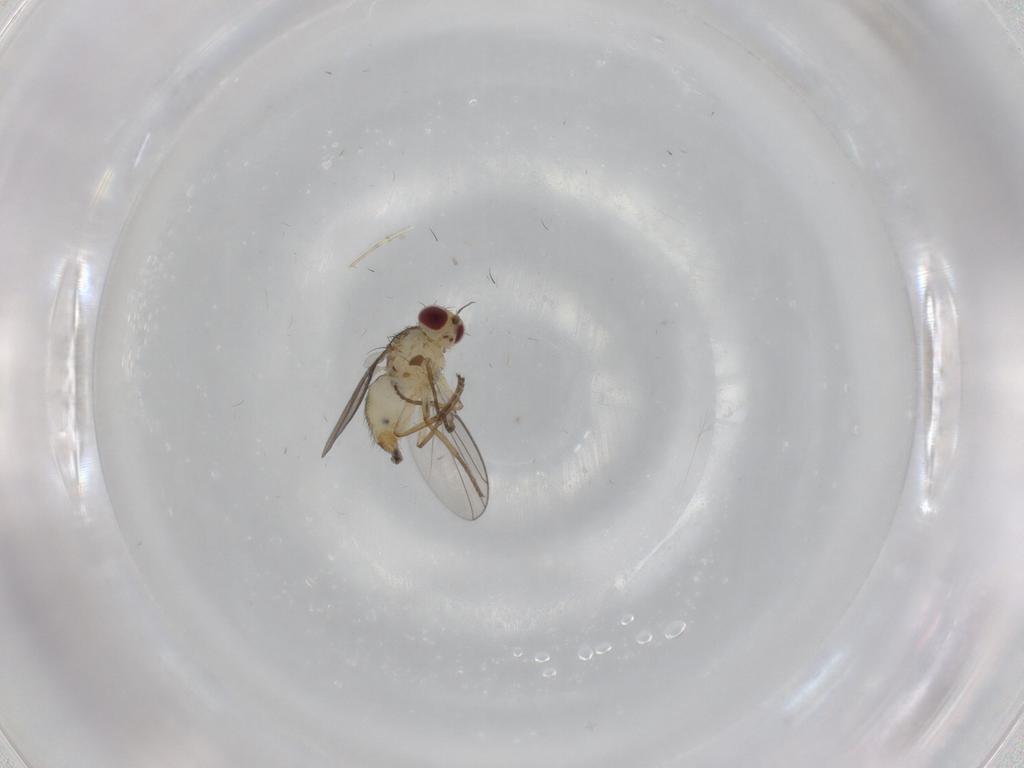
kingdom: Animalia
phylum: Arthropoda
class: Insecta
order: Diptera
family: Agromyzidae
